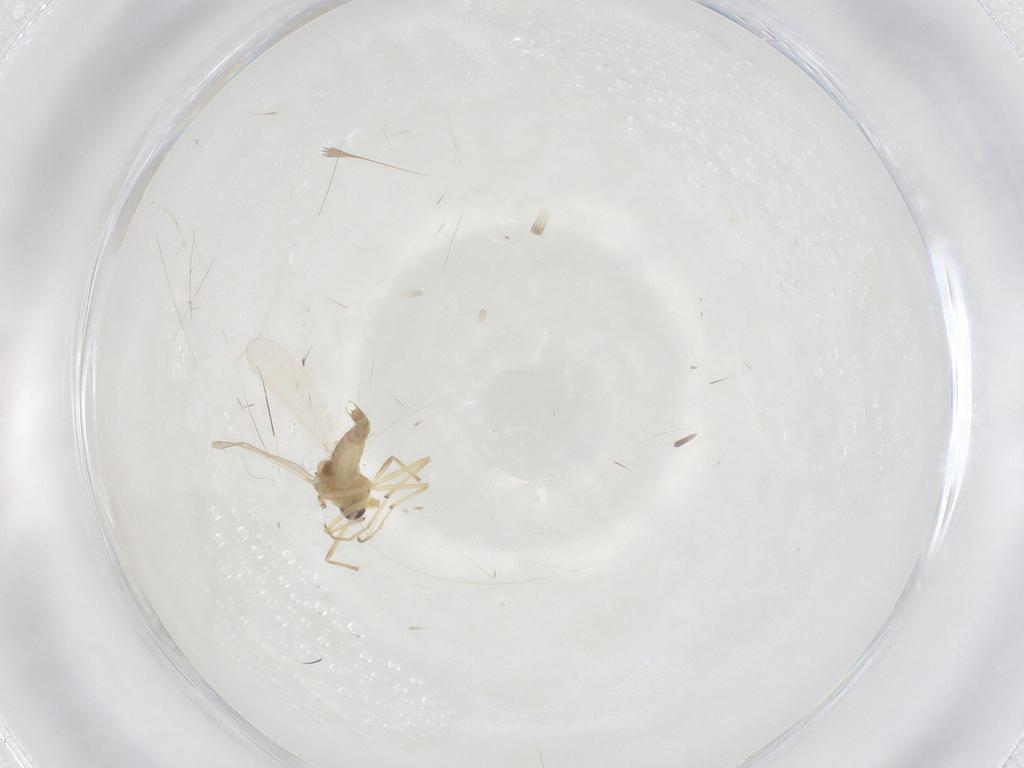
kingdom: Animalia
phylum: Arthropoda
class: Insecta
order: Diptera
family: Chironomidae
